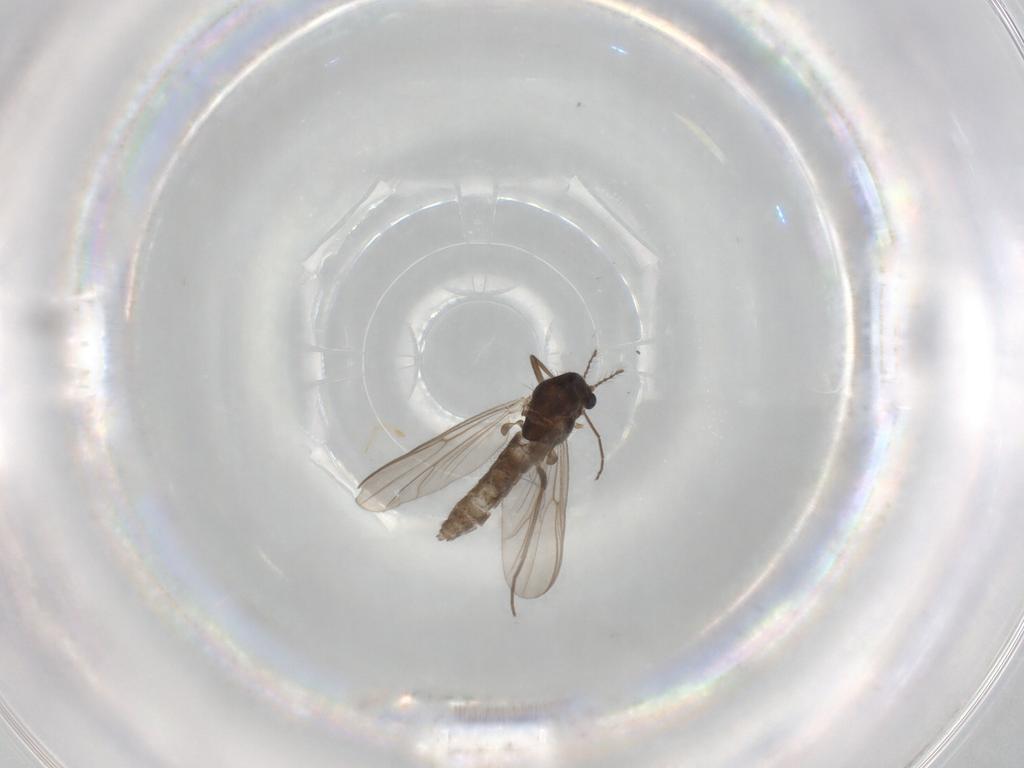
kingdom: Animalia
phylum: Arthropoda
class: Insecta
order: Diptera
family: Chironomidae
